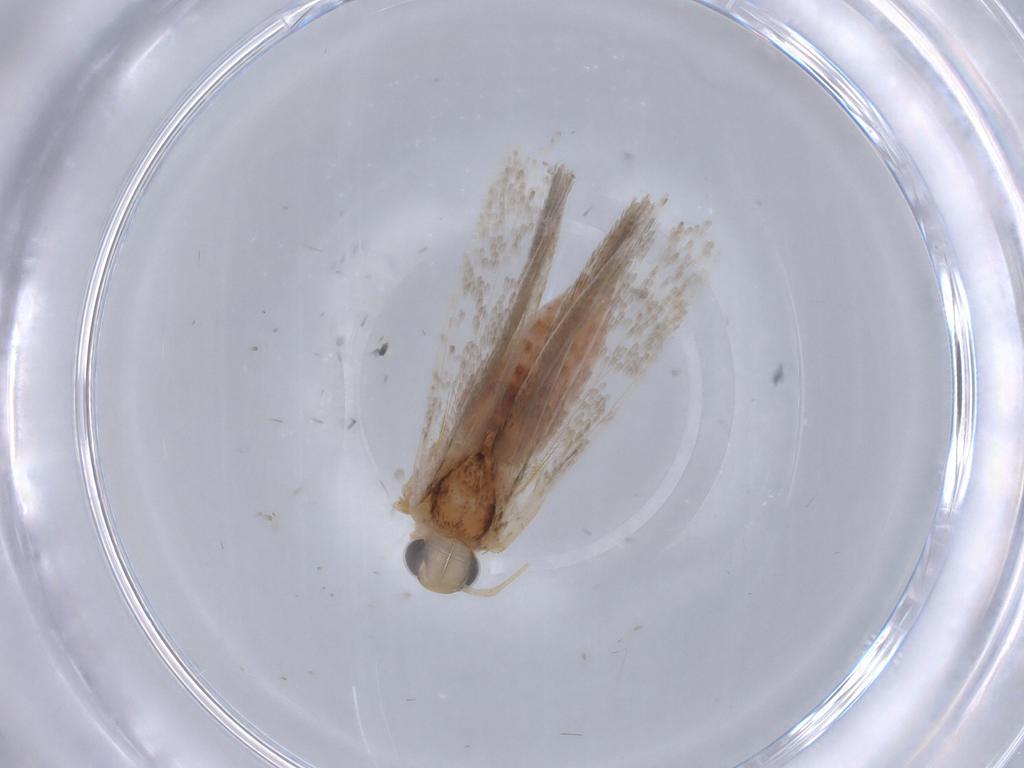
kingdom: Animalia
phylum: Arthropoda
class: Insecta
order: Lepidoptera
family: Gelechiidae
